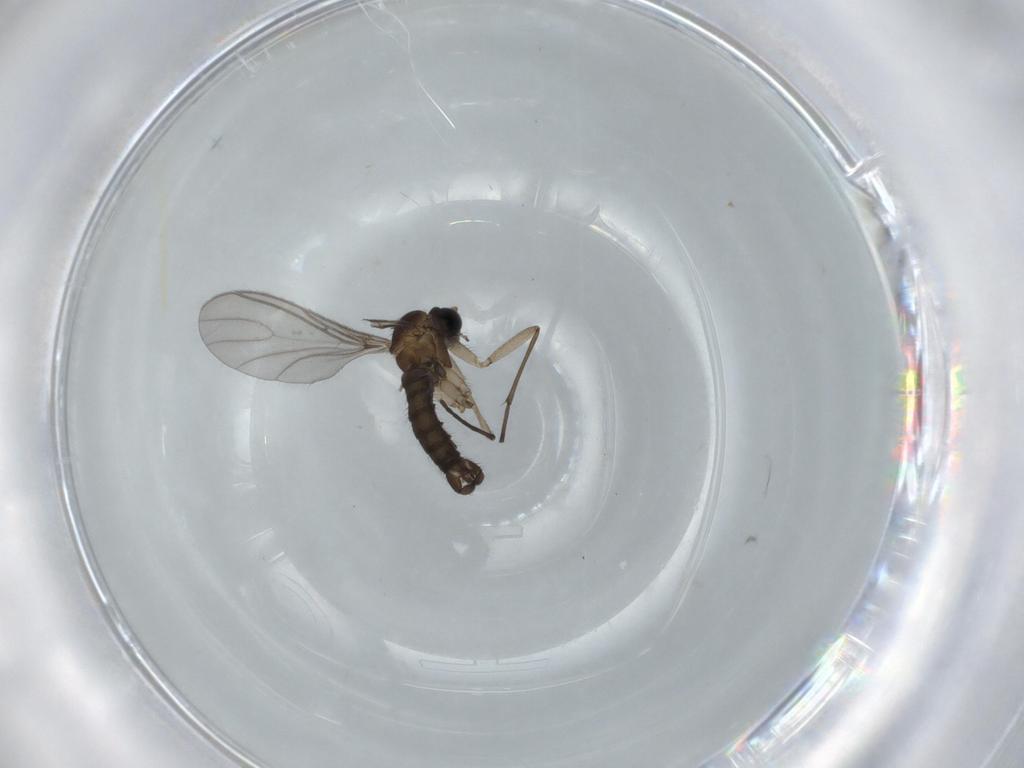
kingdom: Animalia
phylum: Arthropoda
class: Insecta
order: Diptera
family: Sciaridae
